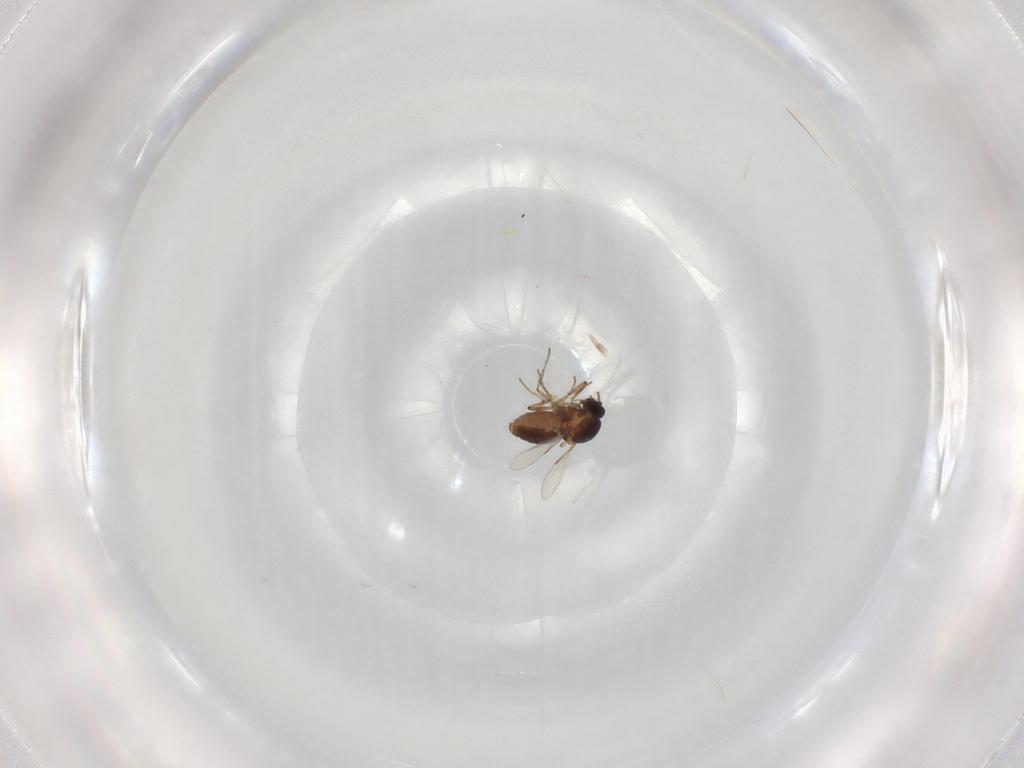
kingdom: Animalia
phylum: Arthropoda
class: Insecta
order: Diptera
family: Ceratopogonidae
